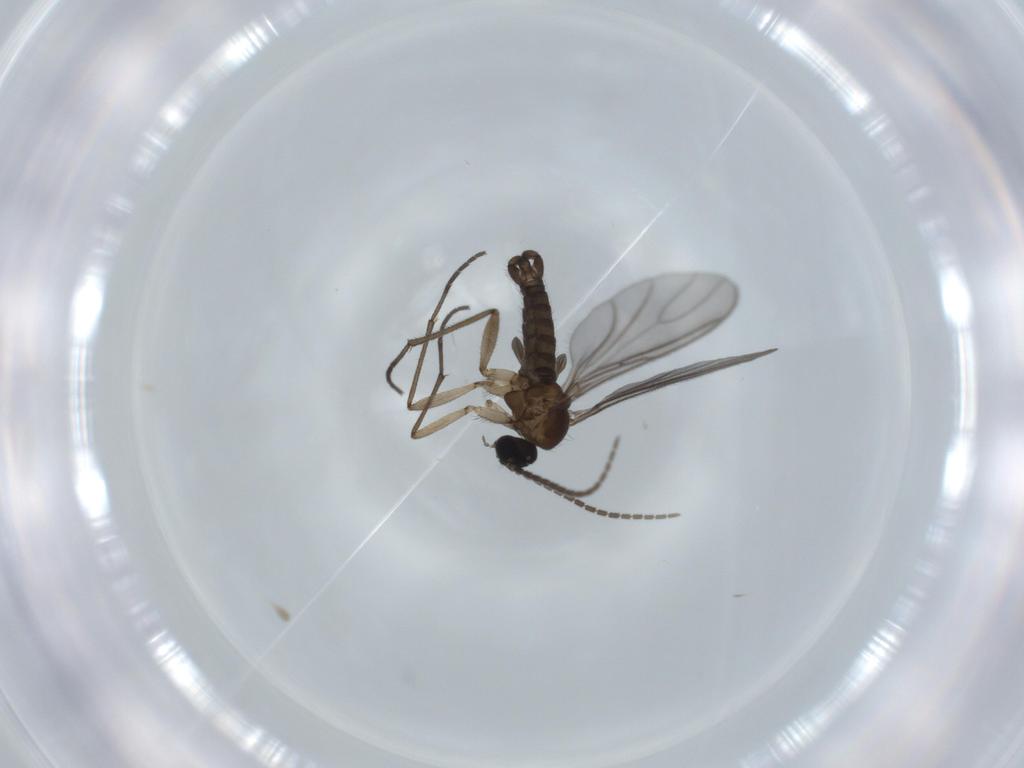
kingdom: Animalia
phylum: Arthropoda
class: Insecta
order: Diptera
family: Sciaridae
